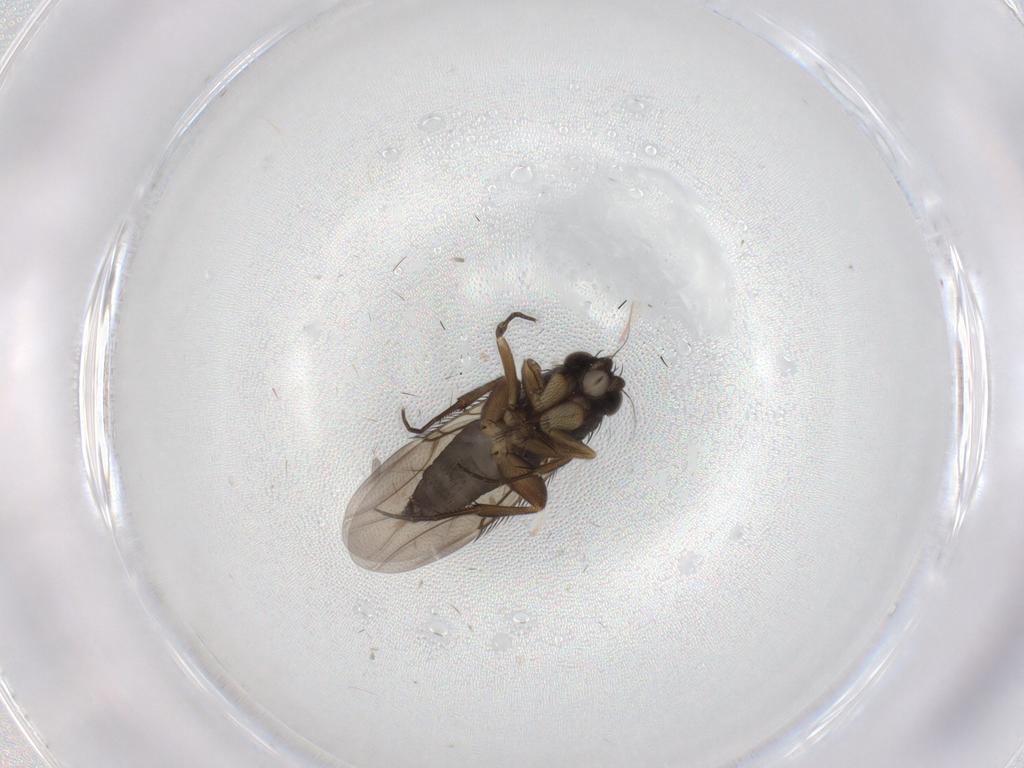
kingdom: Animalia
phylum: Arthropoda
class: Insecta
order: Diptera
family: Phoridae
